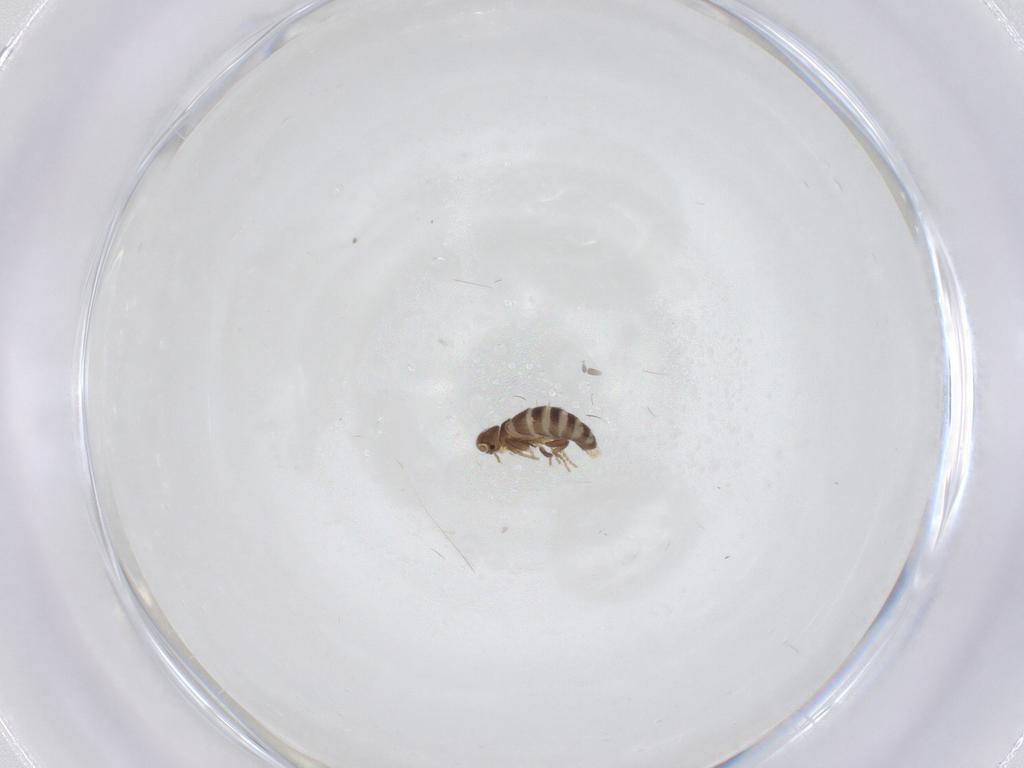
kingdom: Animalia
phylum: Arthropoda
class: Insecta
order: Diptera
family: Phoridae
